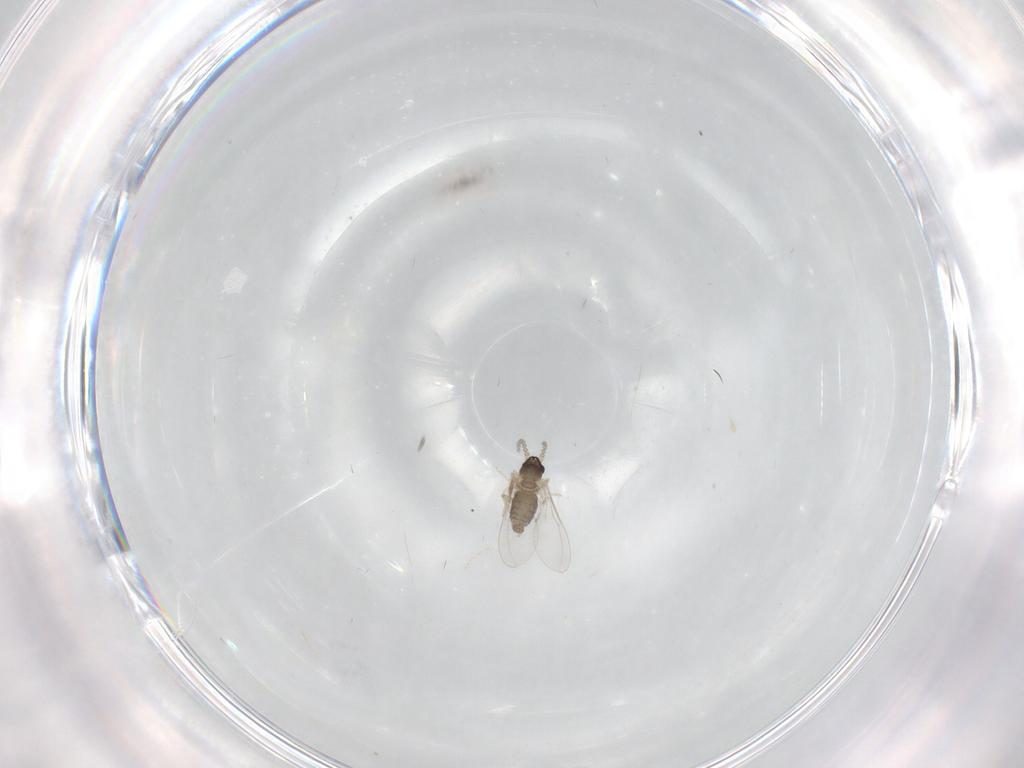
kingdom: Animalia
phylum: Arthropoda
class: Insecta
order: Diptera
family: Cecidomyiidae
